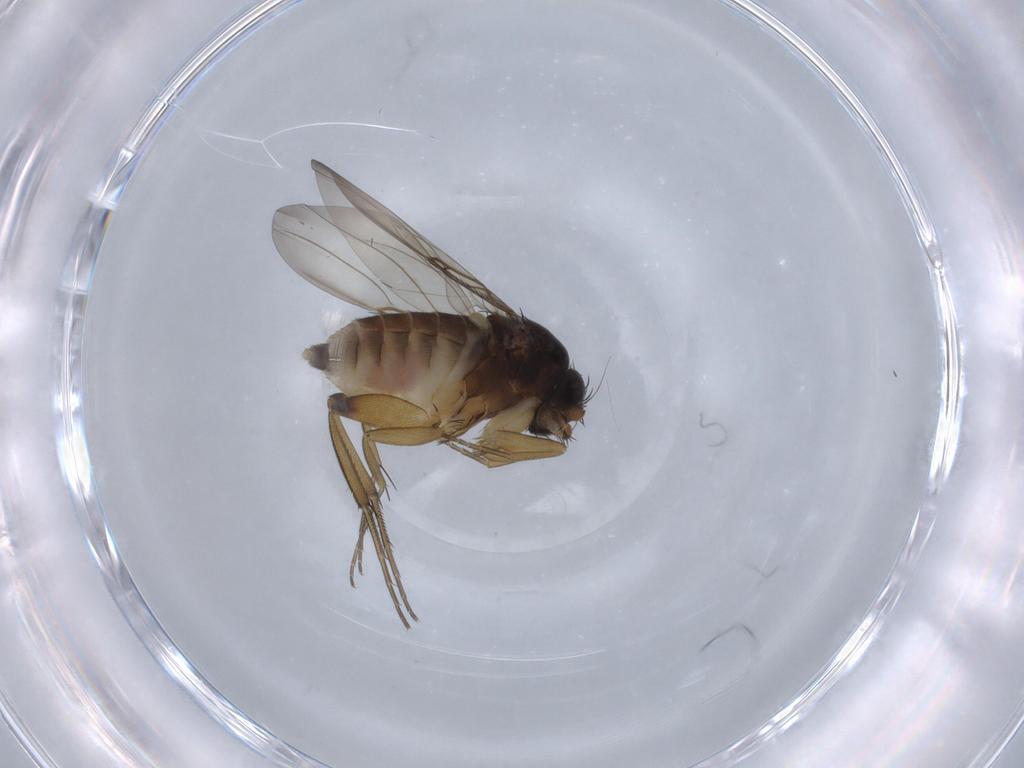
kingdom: Animalia
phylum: Arthropoda
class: Insecta
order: Diptera
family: Phoridae
